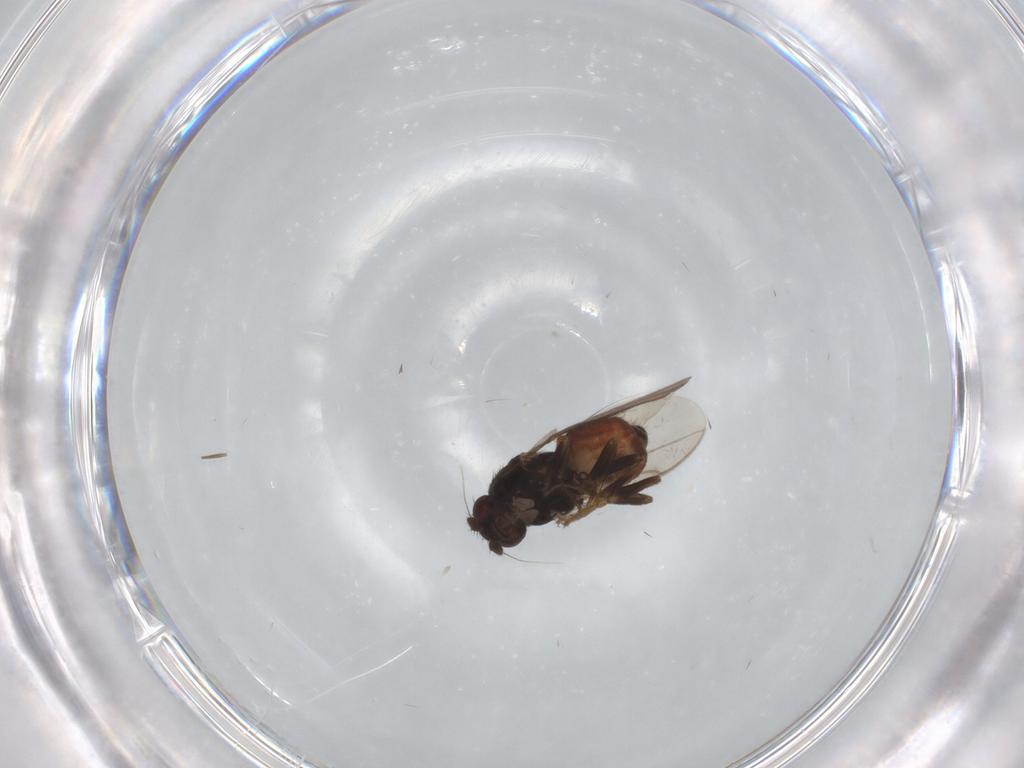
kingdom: Animalia
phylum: Arthropoda
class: Insecta
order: Diptera
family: Sphaeroceridae
